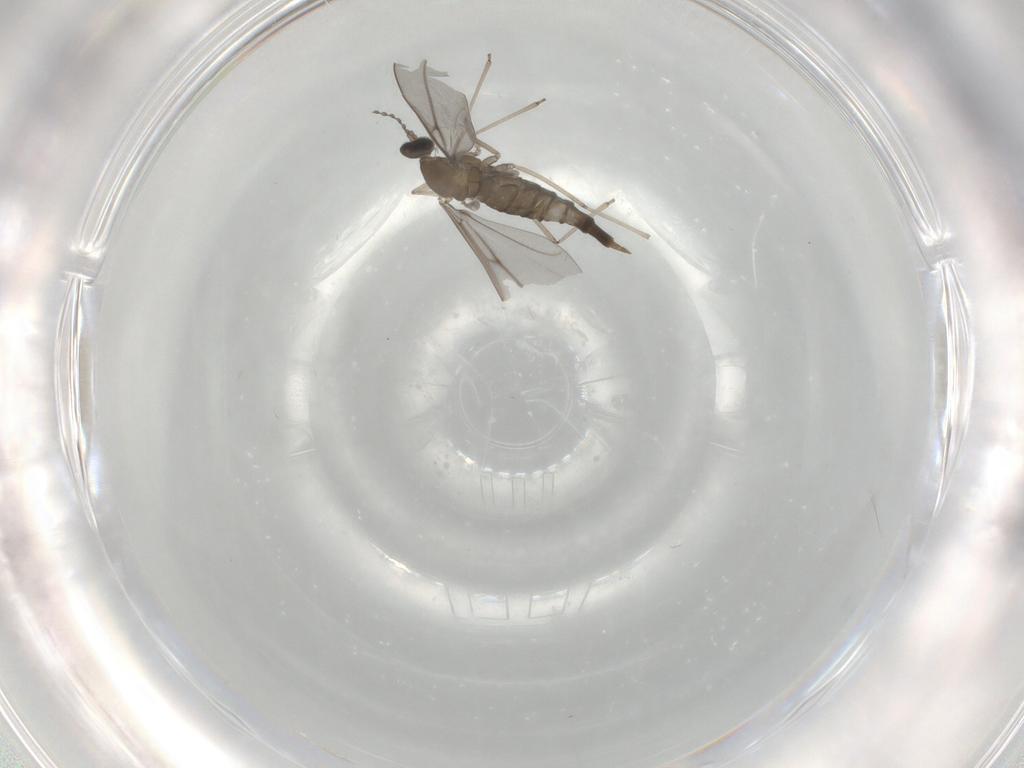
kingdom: Animalia
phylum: Arthropoda
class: Insecta
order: Diptera
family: Phoridae
